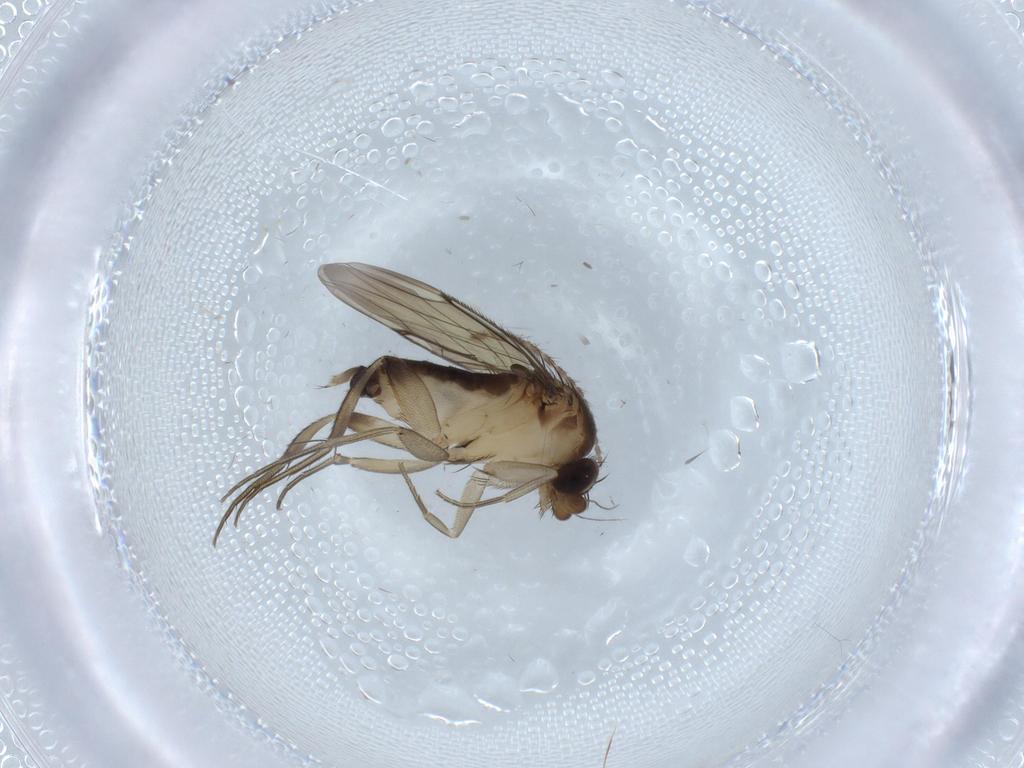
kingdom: Animalia
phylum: Arthropoda
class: Insecta
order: Diptera
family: Limoniidae
